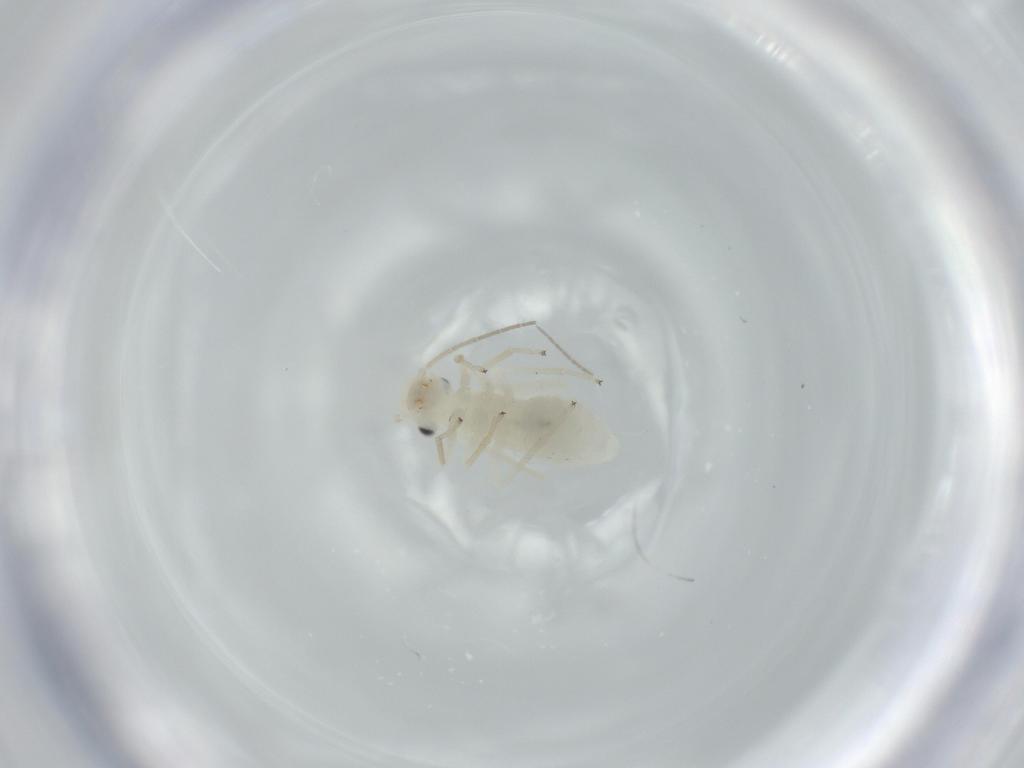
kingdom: Animalia
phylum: Arthropoda
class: Insecta
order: Psocodea
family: Caeciliusidae
